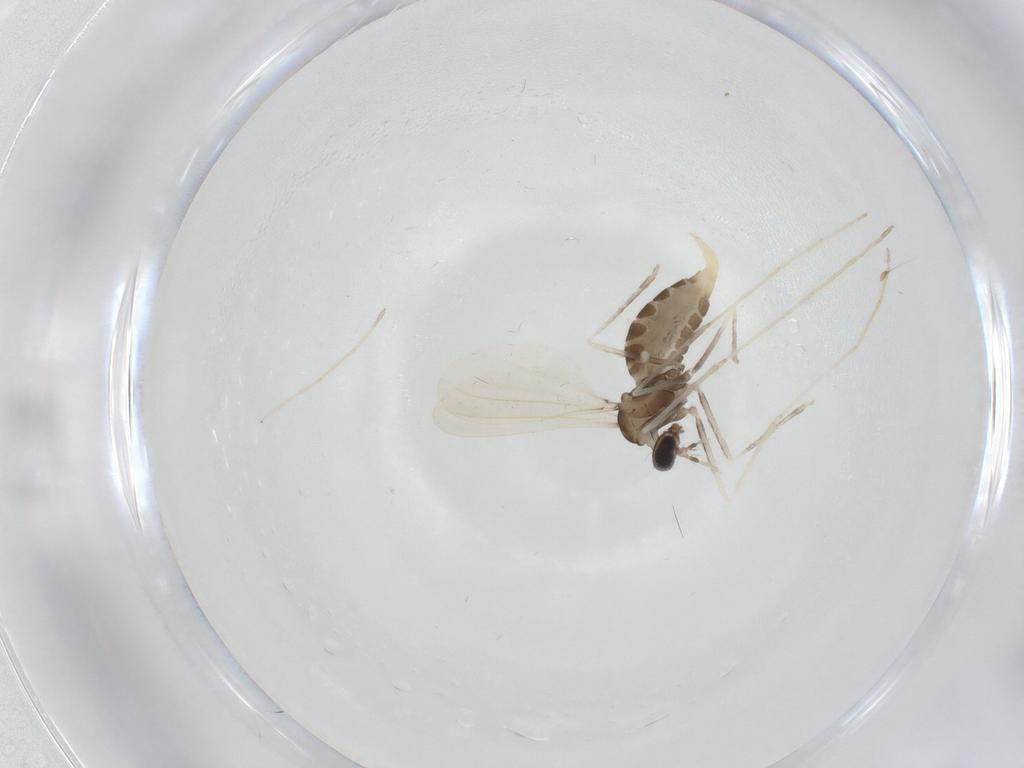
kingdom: Animalia
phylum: Arthropoda
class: Insecta
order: Diptera
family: Cecidomyiidae
